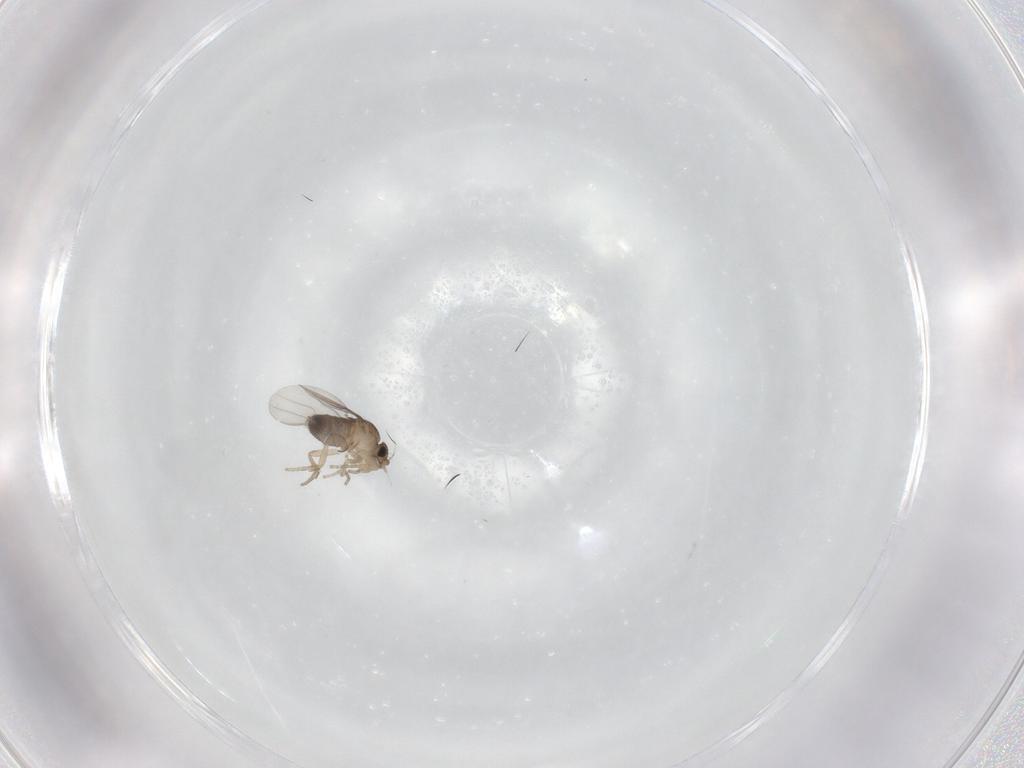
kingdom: Animalia
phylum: Arthropoda
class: Insecta
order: Diptera
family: Phoridae
